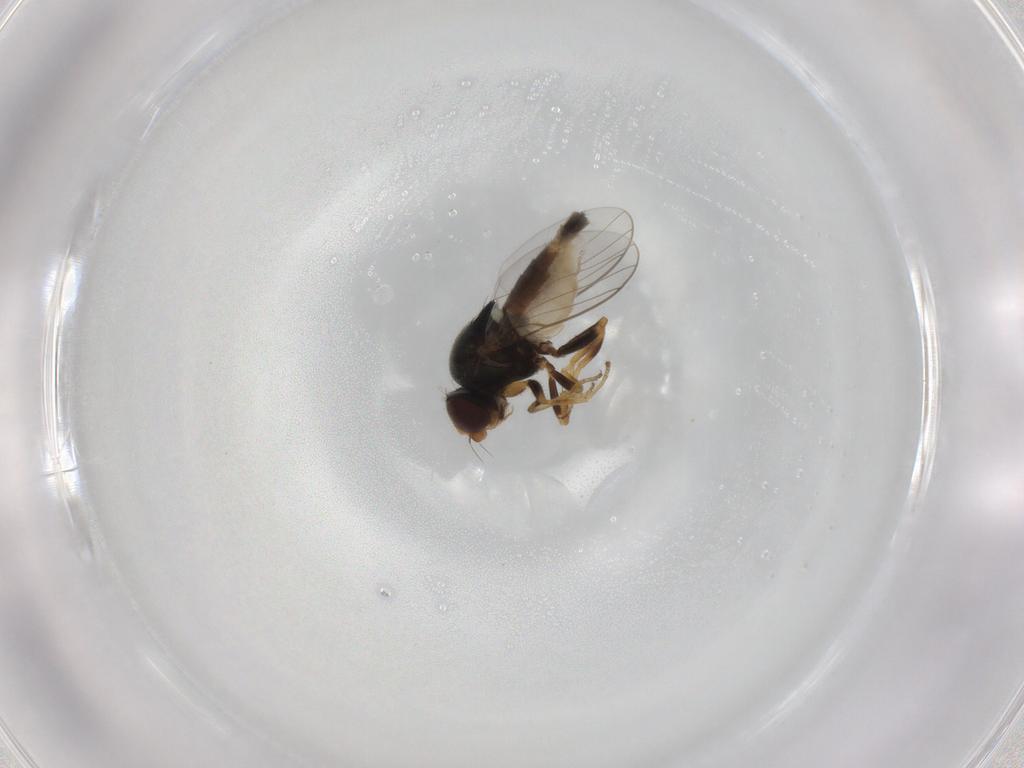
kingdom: Animalia
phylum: Arthropoda
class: Insecta
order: Diptera
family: Chloropidae
